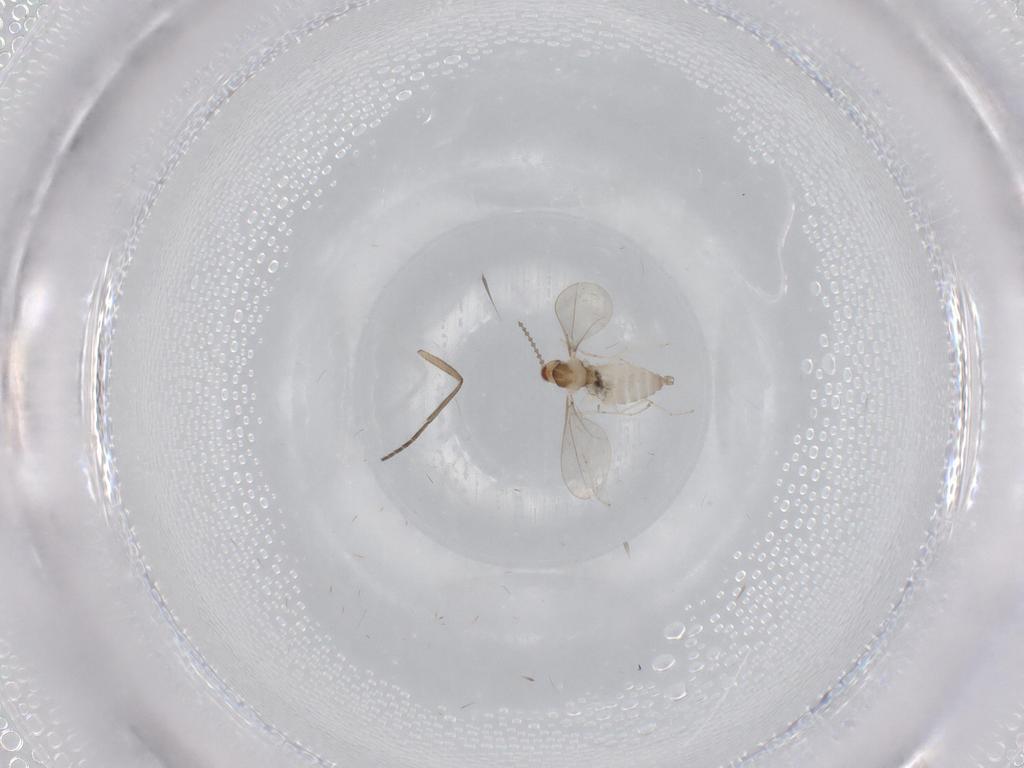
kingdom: Animalia
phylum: Arthropoda
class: Insecta
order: Diptera
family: Cecidomyiidae
